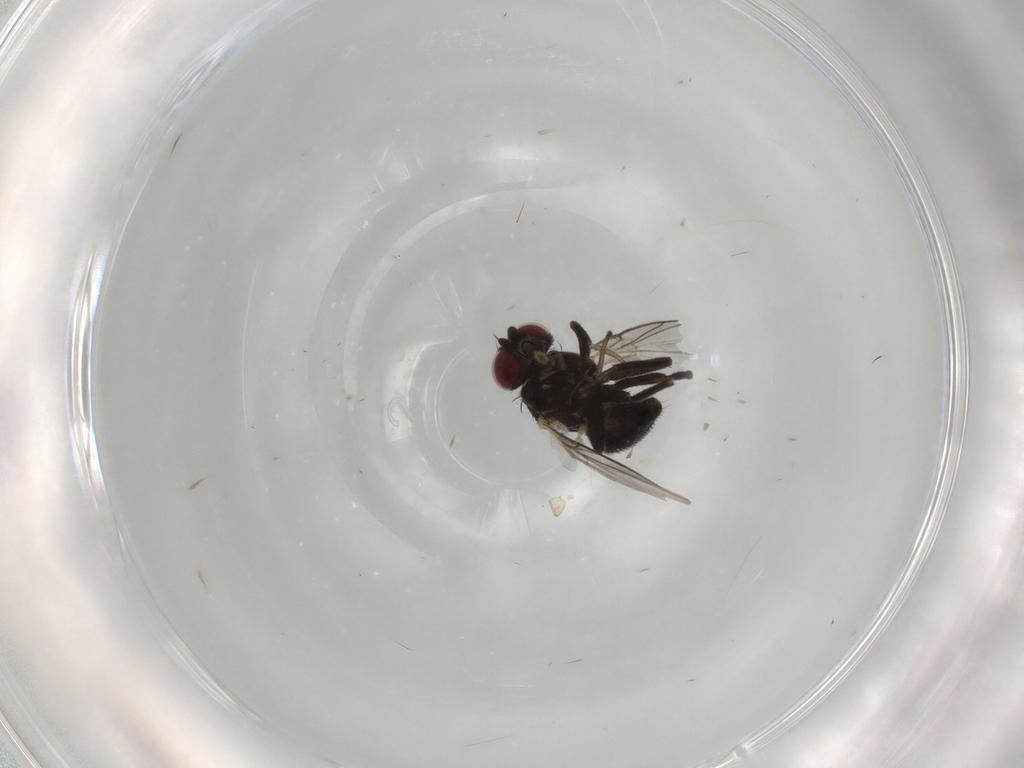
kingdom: Animalia
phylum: Arthropoda
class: Insecta
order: Diptera
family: Agromyzidae
